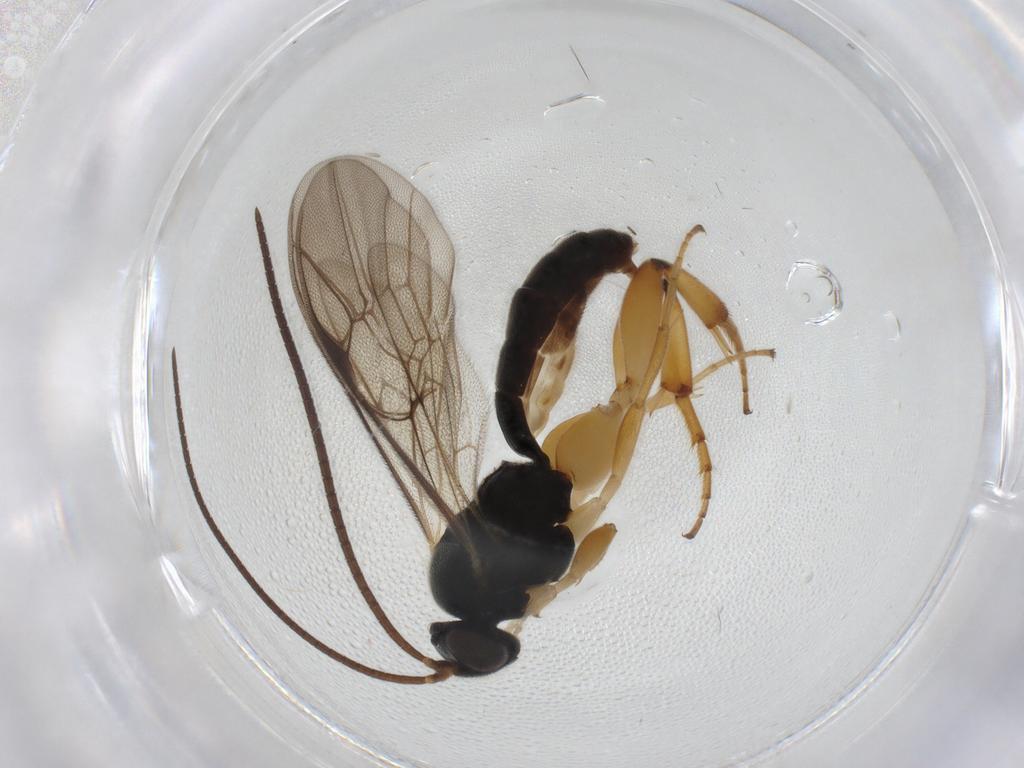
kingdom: Animalia
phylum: Arthropoda
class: Insecta
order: Hymenoptera
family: Ichneumonidae
